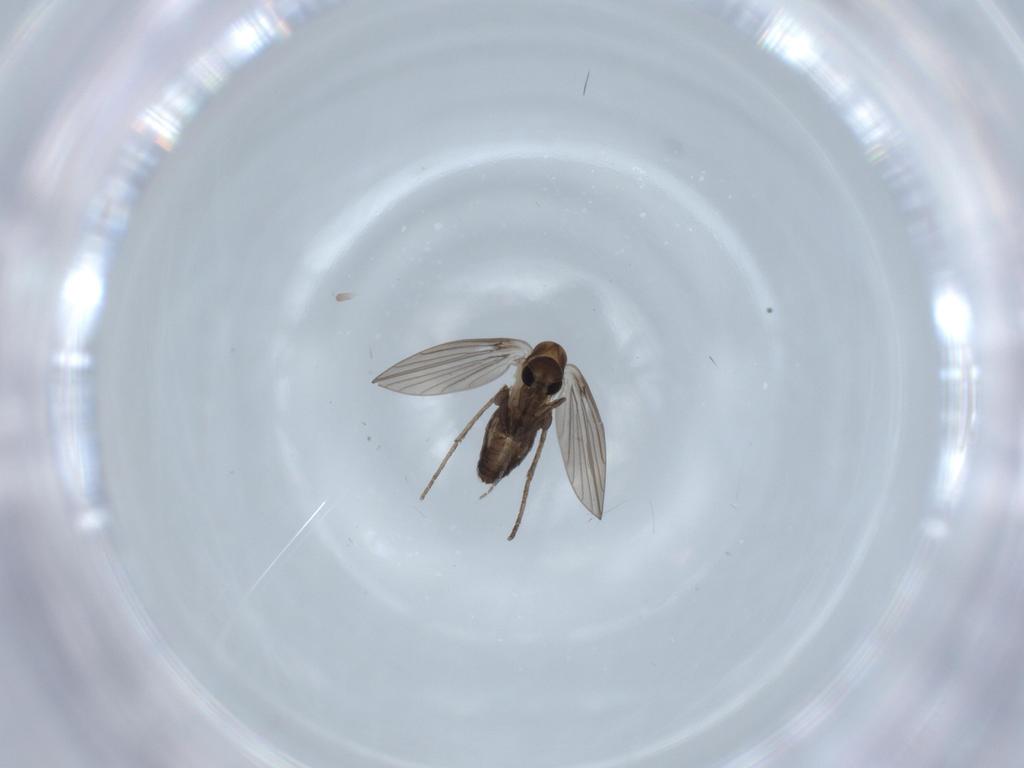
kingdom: Animalia
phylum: Arthropoda
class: Insecta
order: Diptera
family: Psychodidae
